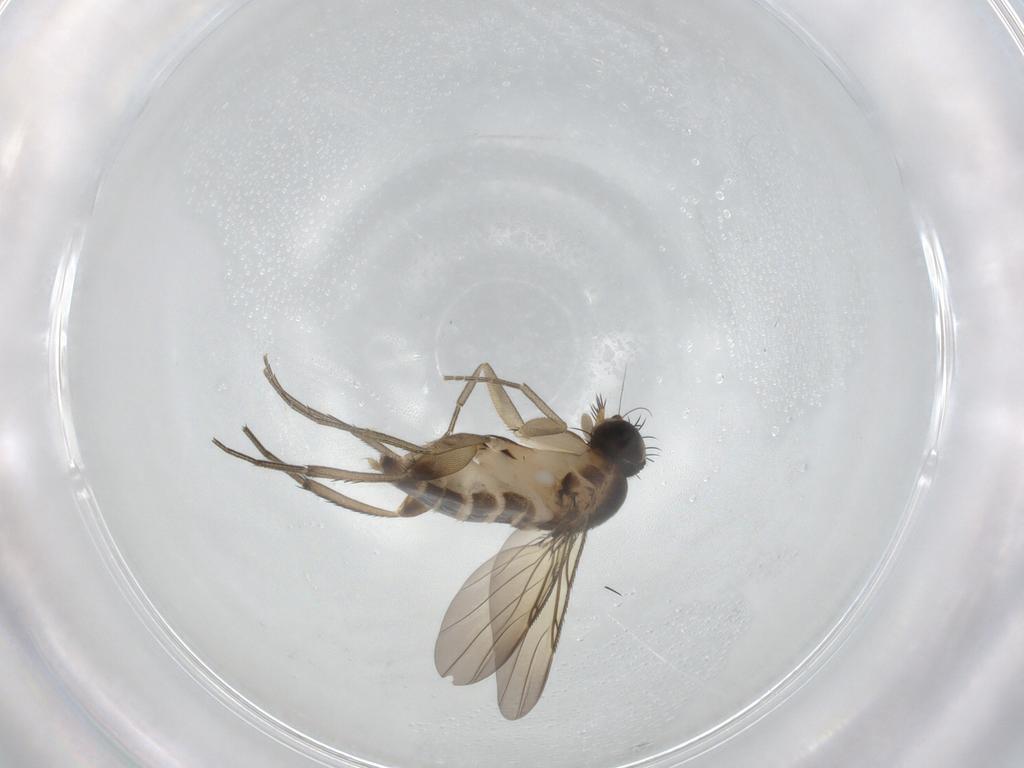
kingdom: Animalia
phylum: Arthropoda
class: Insecta
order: Diptera
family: Phoridae
